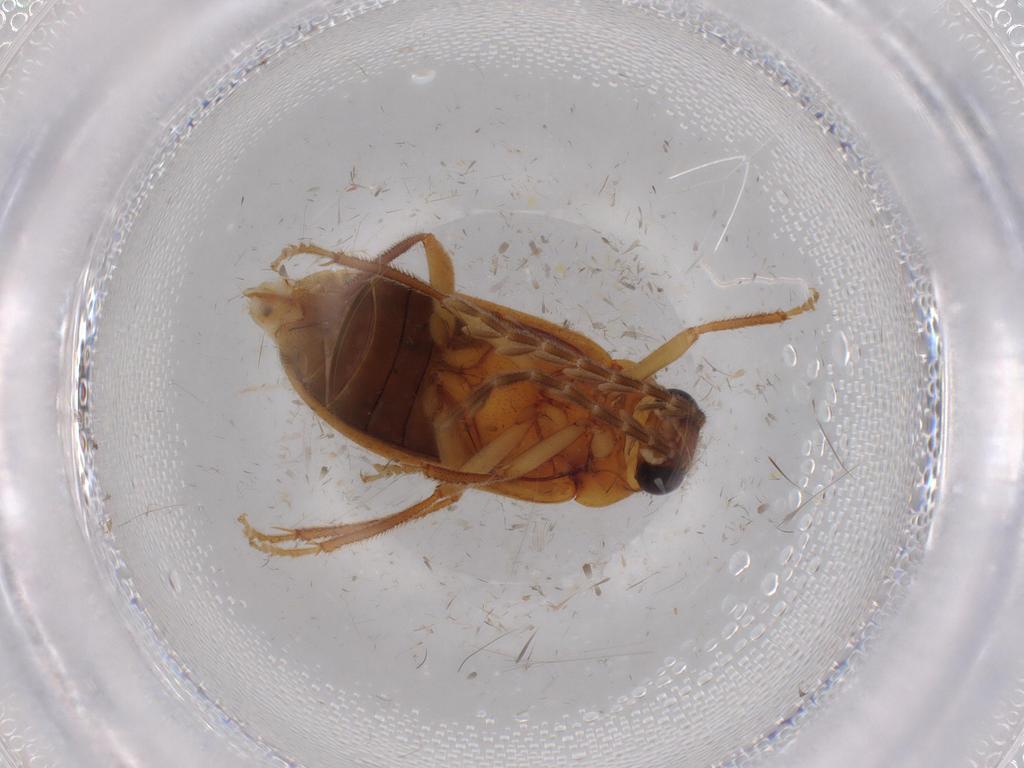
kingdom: Animalia
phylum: Arthropoda
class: Insecta
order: Coleoptera
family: Ptilodactylidae
